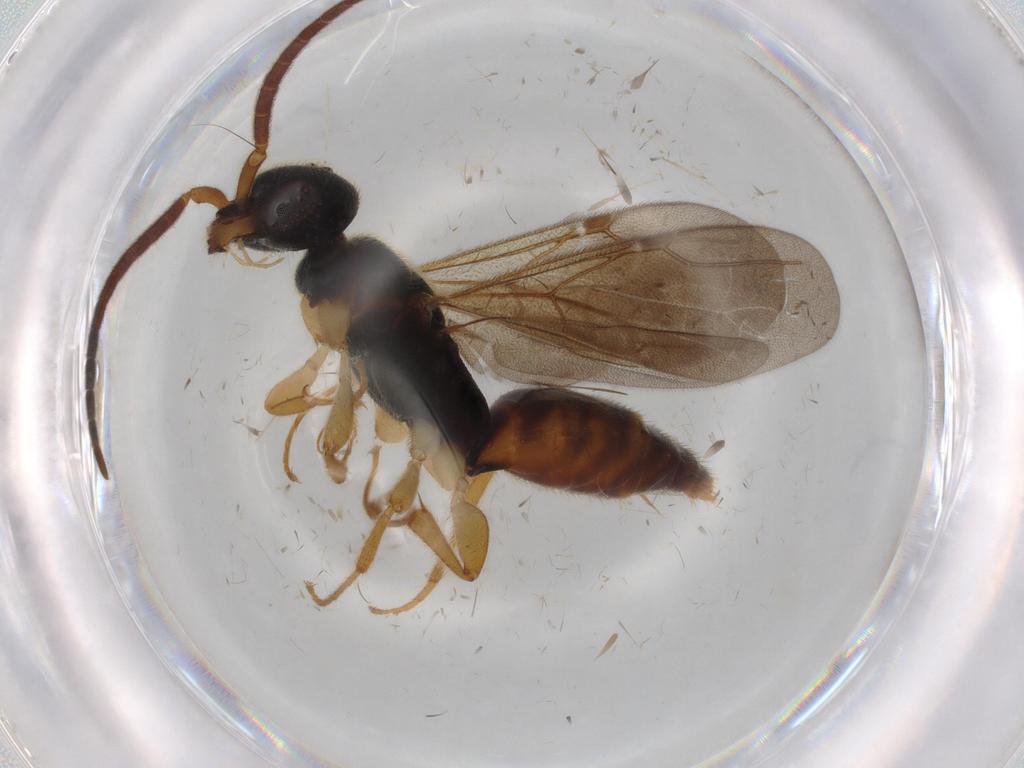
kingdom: Animalia
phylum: Arthropoda
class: Insecta
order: Hymenoptera
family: Bethylidae
